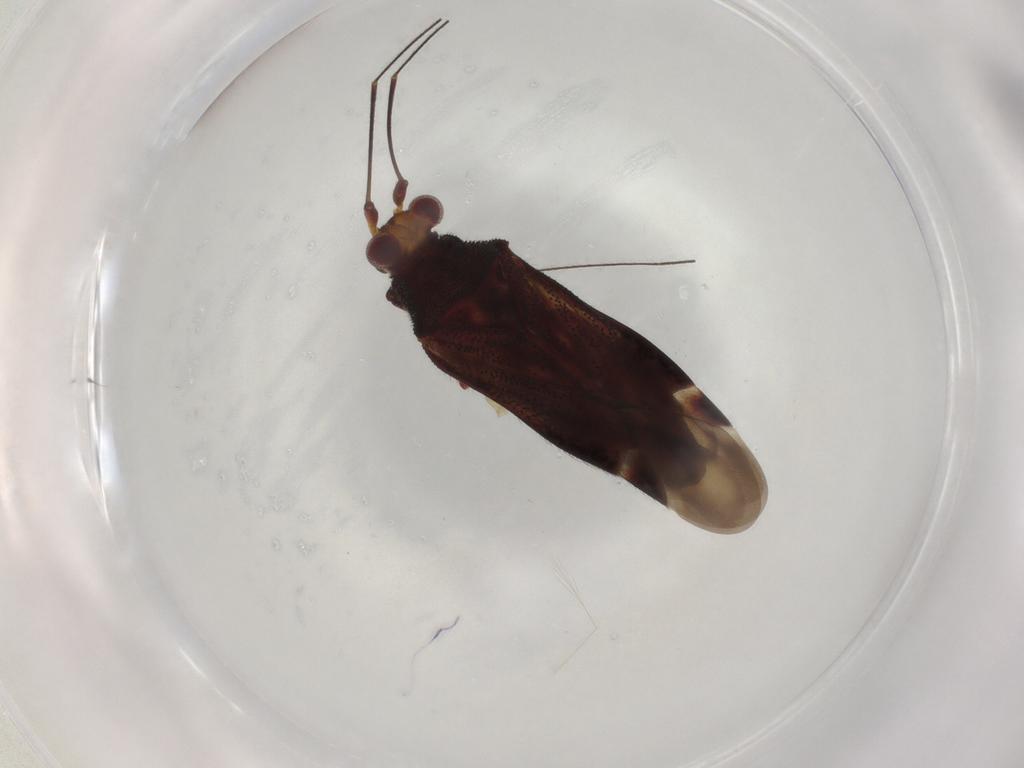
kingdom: Animalia
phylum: Arthropoda
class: Insecta
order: Hemiptera
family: Miridae
